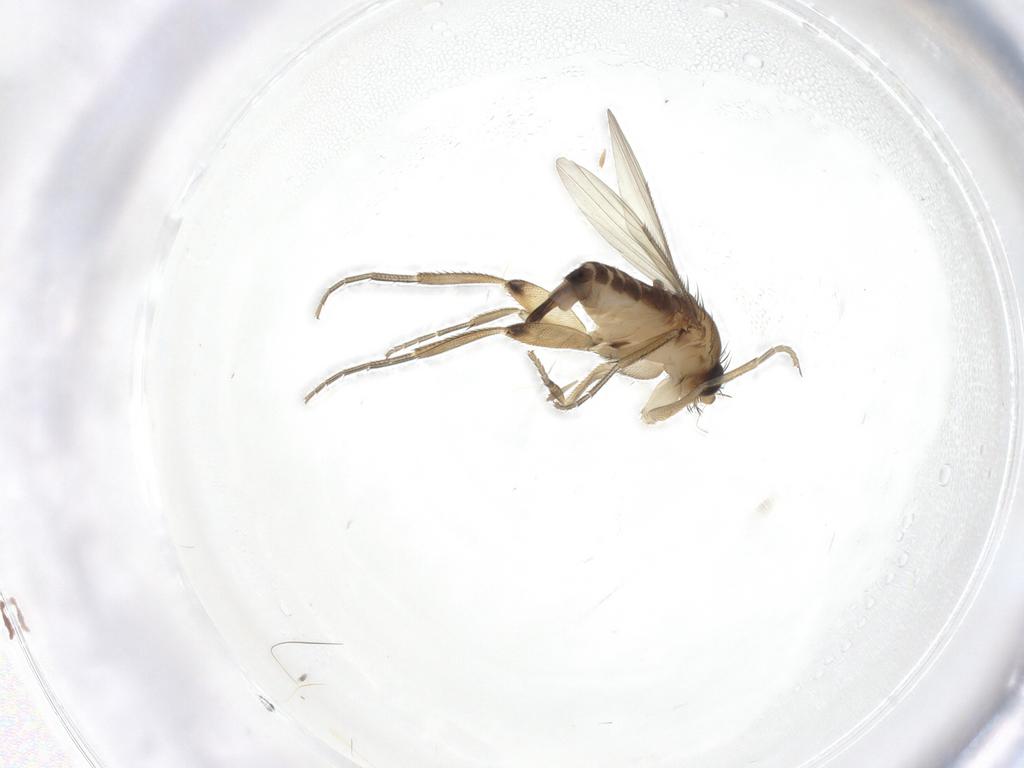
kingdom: Animalia
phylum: Arthropoda
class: Insecta
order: Diptera
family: Phoridae
